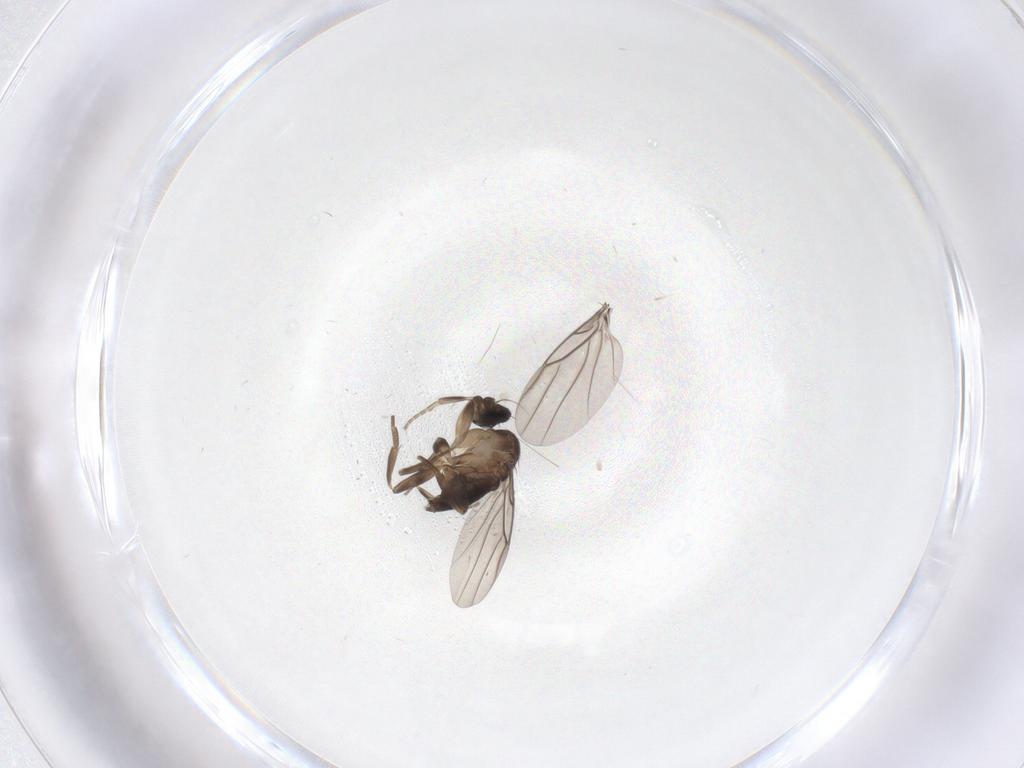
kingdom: Animalia
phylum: Arthropoda
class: Insecta
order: Diptera
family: Phoridae
